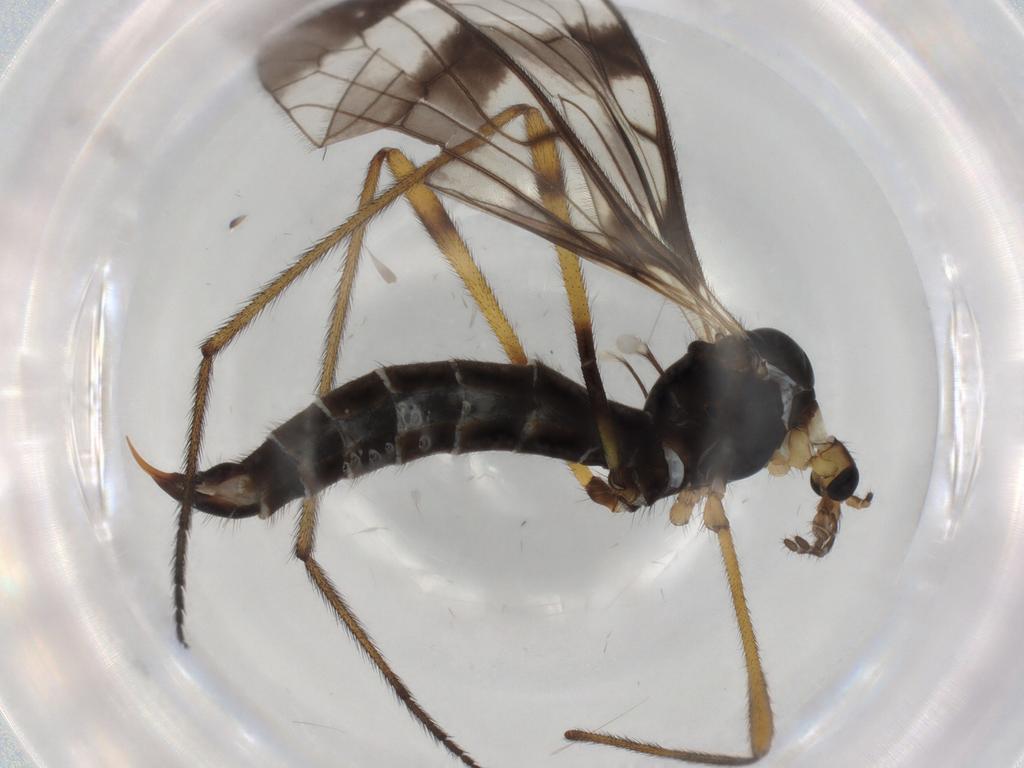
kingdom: Animalia
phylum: Arthropoda
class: Insecta
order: Diptera
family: Limoniidae
